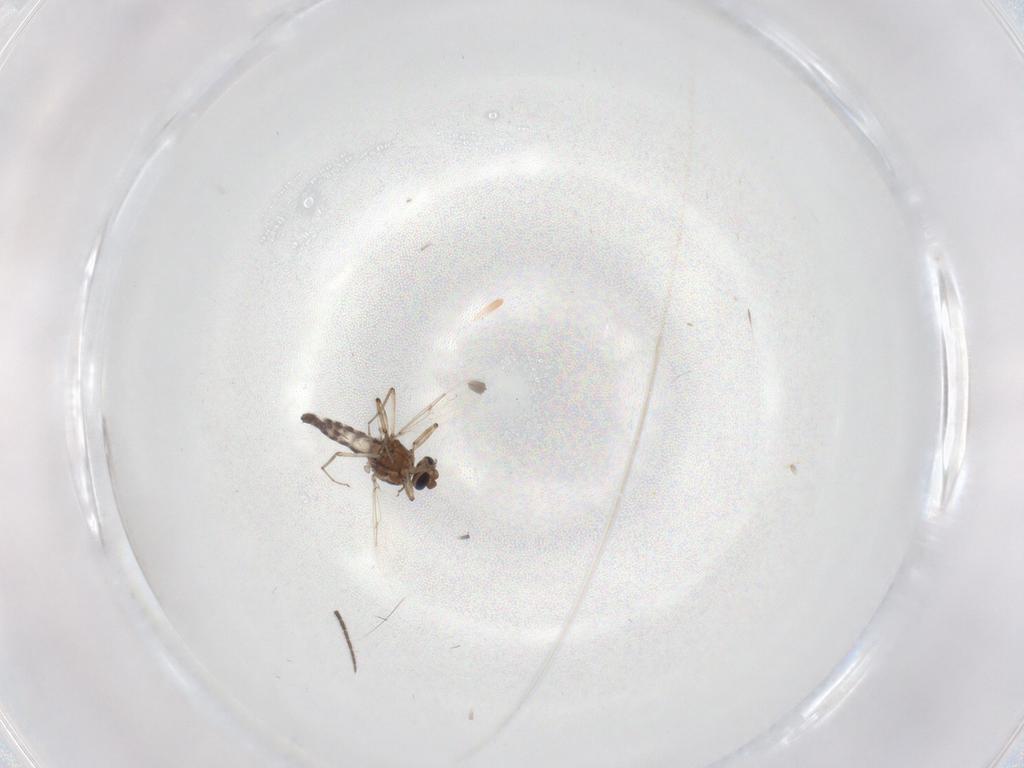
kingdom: Animalia
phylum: Arthropoda
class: Insecta
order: Diptera
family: Ceratopogonidae
